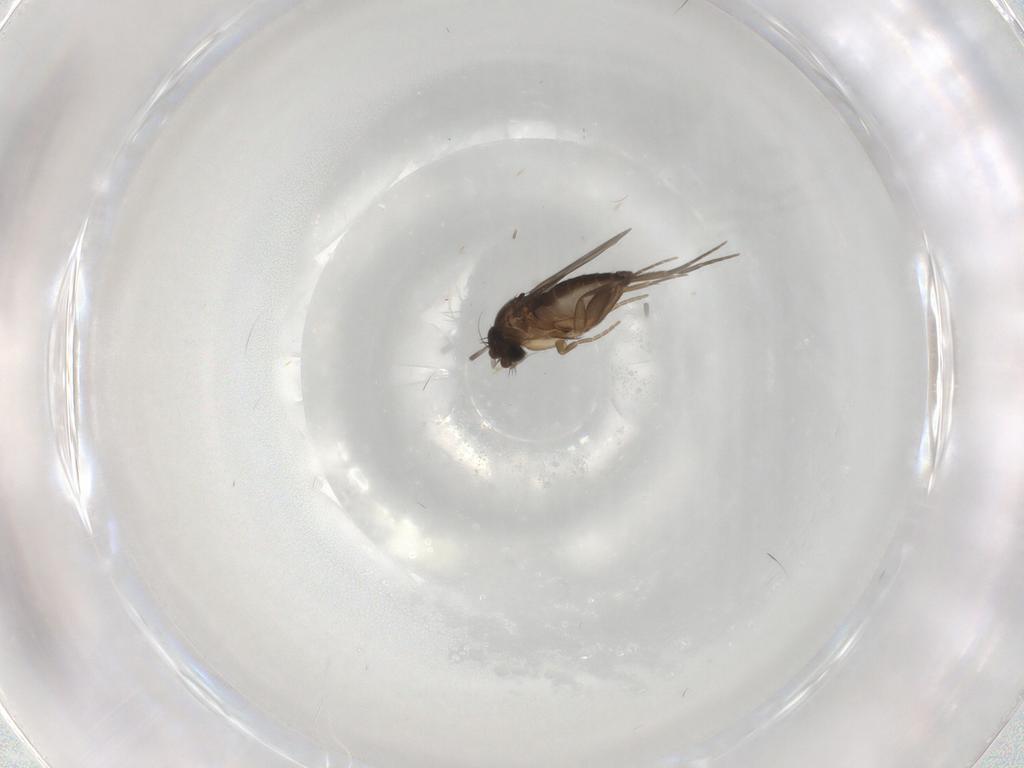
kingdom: Animalia
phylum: Arthropoda
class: Insecta
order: Diptera
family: Phoridae
